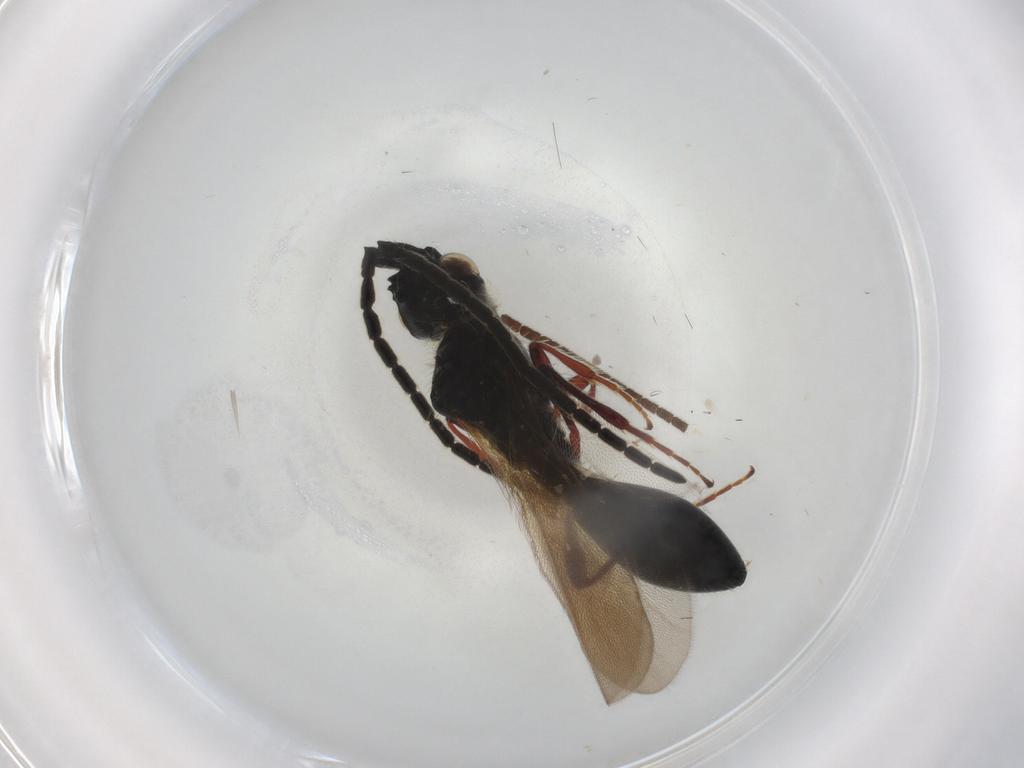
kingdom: Animalia
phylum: Arthropoda
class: Insecta
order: Hymenoptera
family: Braconidae
